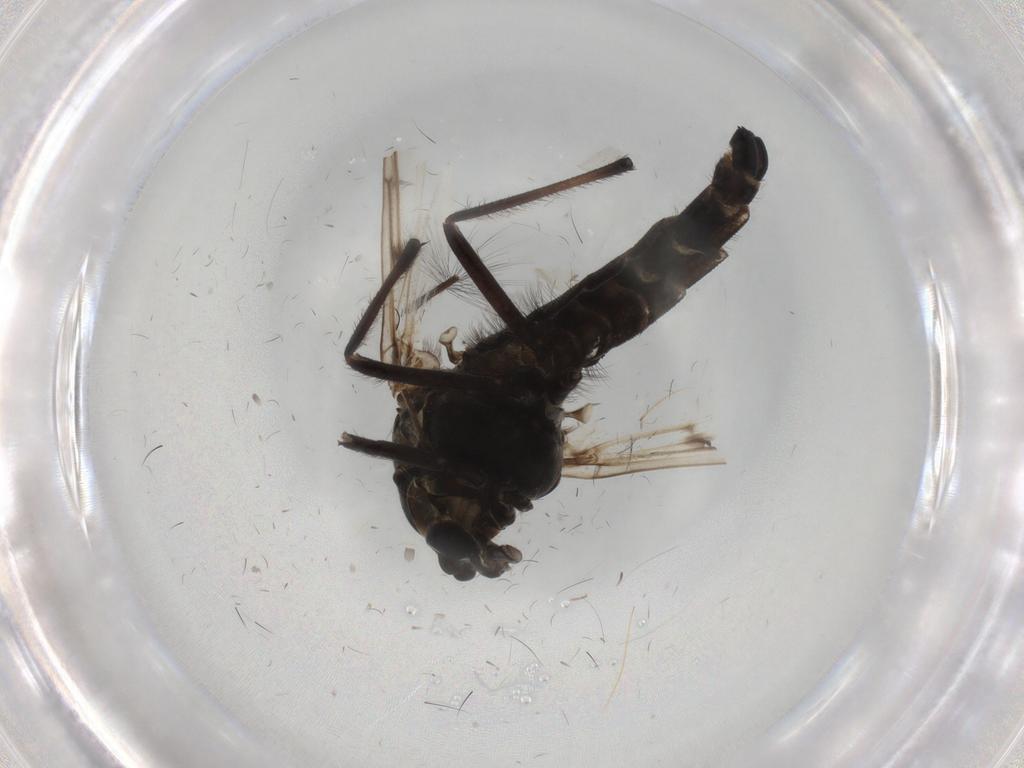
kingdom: Animalia
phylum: Arthropoda
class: Insecta
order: Diptera
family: Chironomidae
